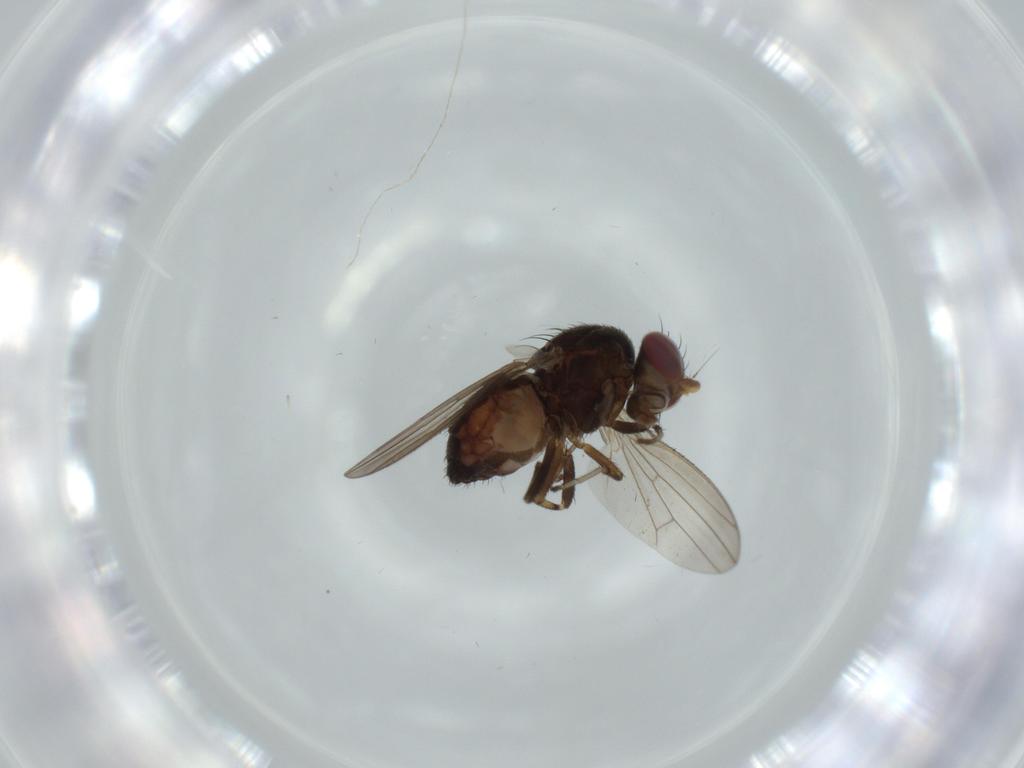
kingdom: Animalia
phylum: Arthropoda
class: Insecta
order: Diptera
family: Heleomyzidae
